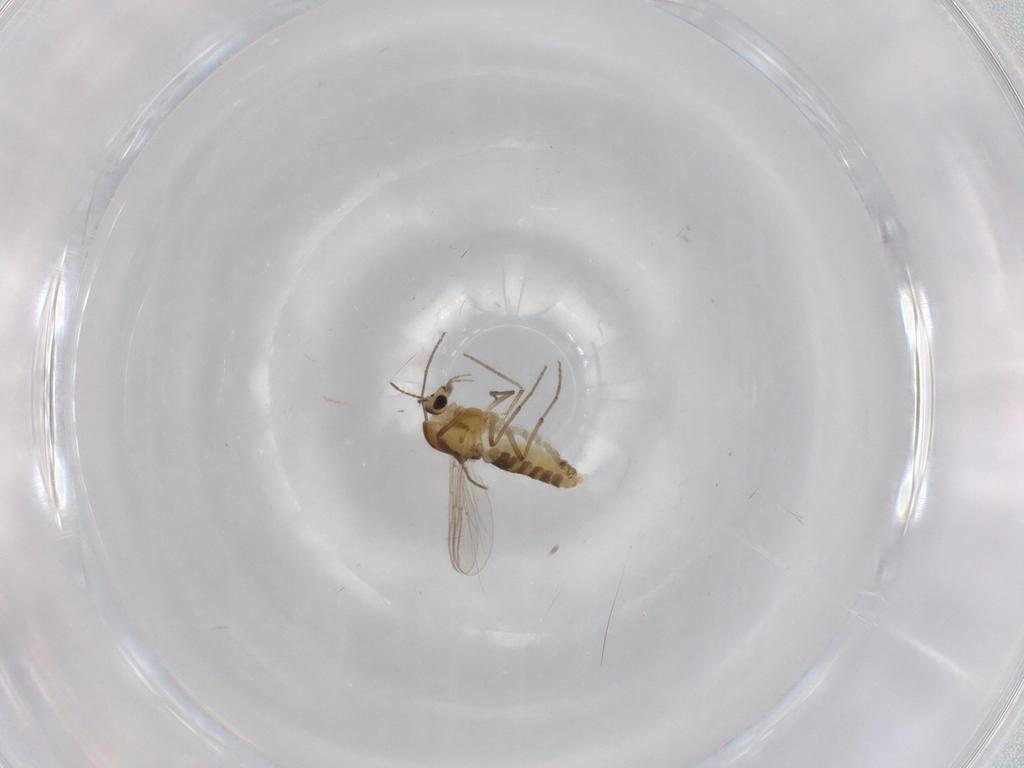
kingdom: Animalia
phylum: Arthropoda
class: Insecta
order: Diptera
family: Chironomidae
